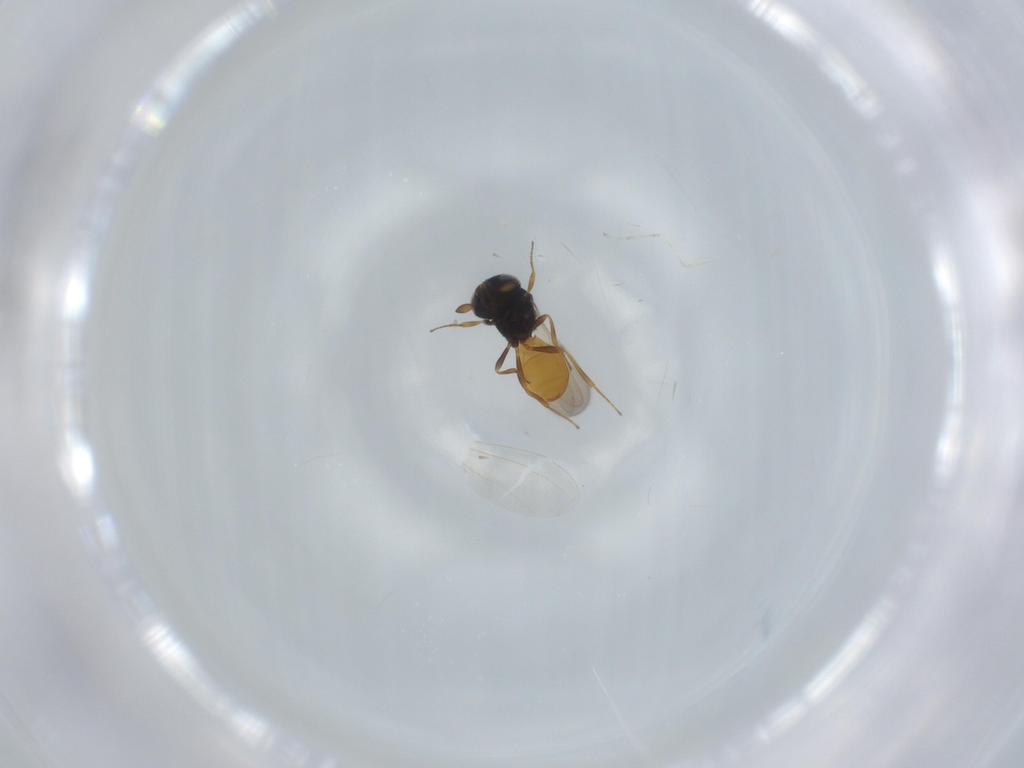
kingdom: Animalia
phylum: Arthropoda
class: Insecta
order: Hymenoptera
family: Scelionidae
